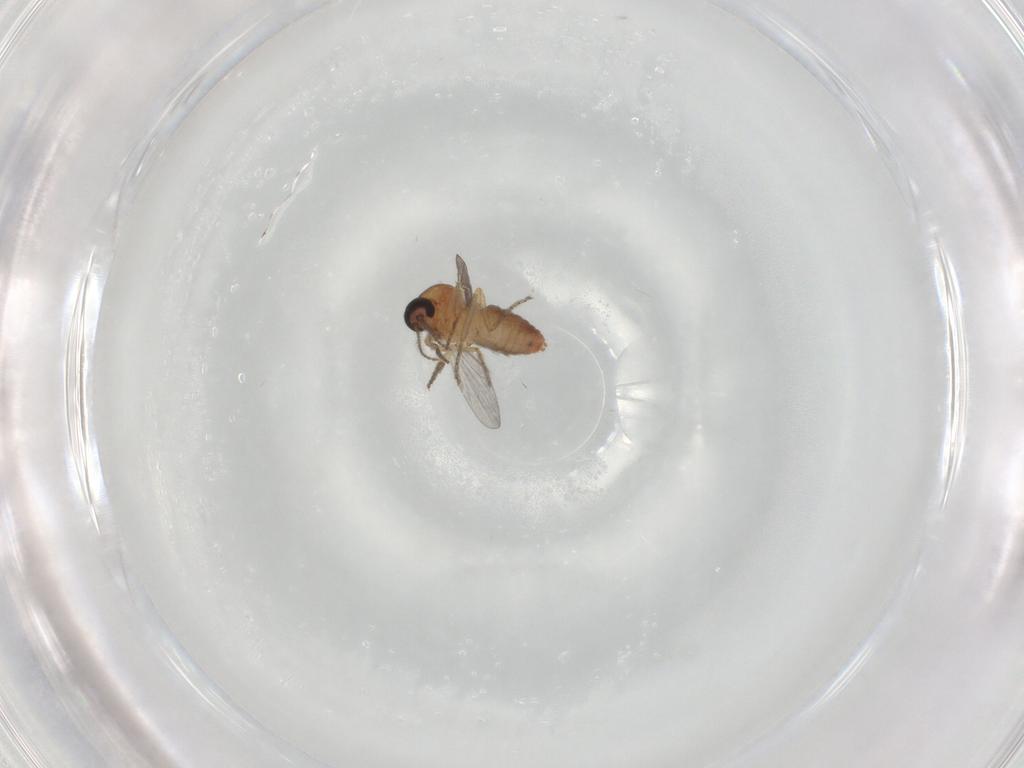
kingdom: Animalia
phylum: Arthropoda
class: Insecta
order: Diptera
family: Ceratopogonidae
